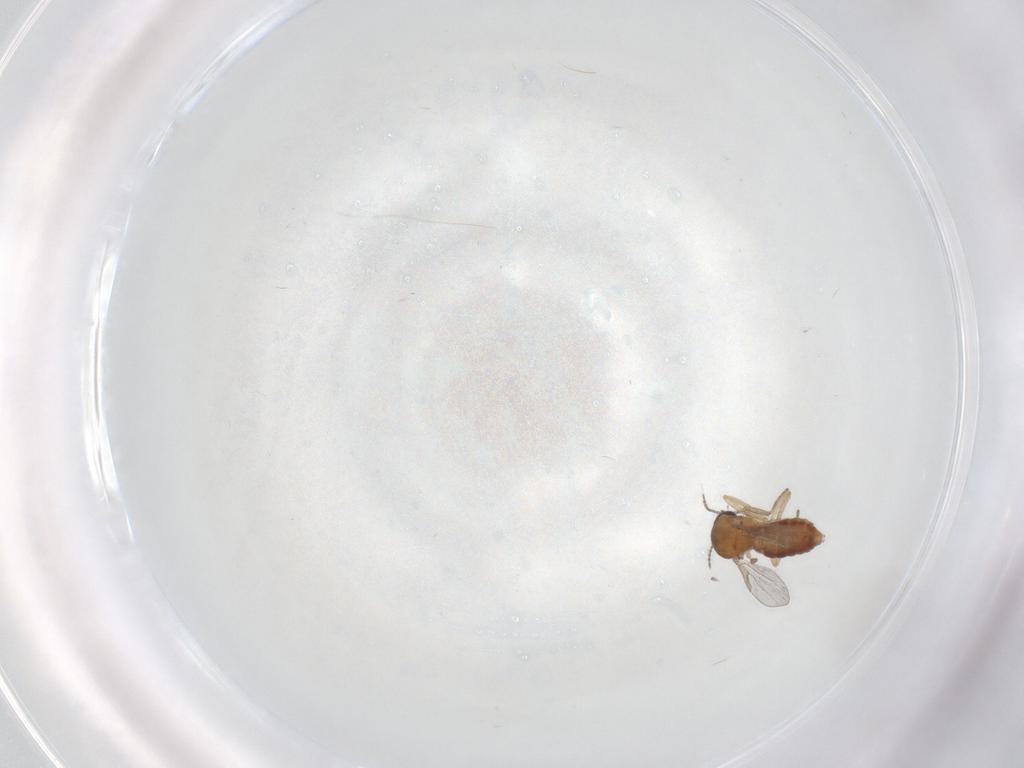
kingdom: Animalia
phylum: Arthropoda
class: Insecta
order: Diptera
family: Ceratopogonidae
